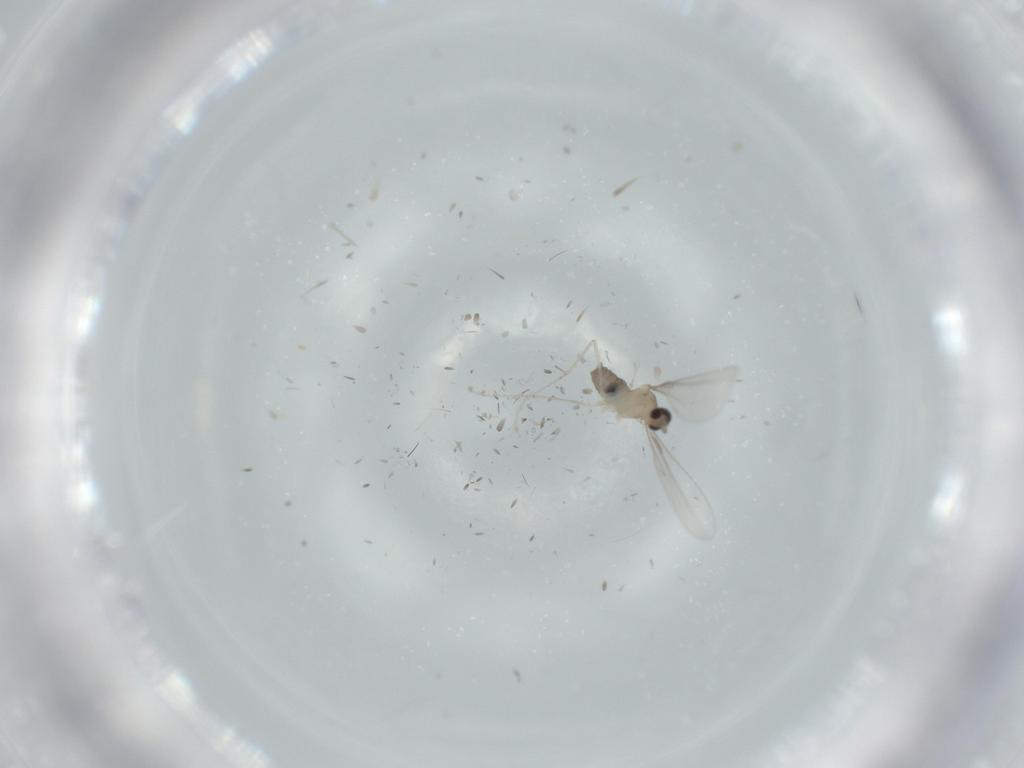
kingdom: Animalia
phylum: Arthropoda
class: Insecta
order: Diptera
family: Cecidomyiidae
